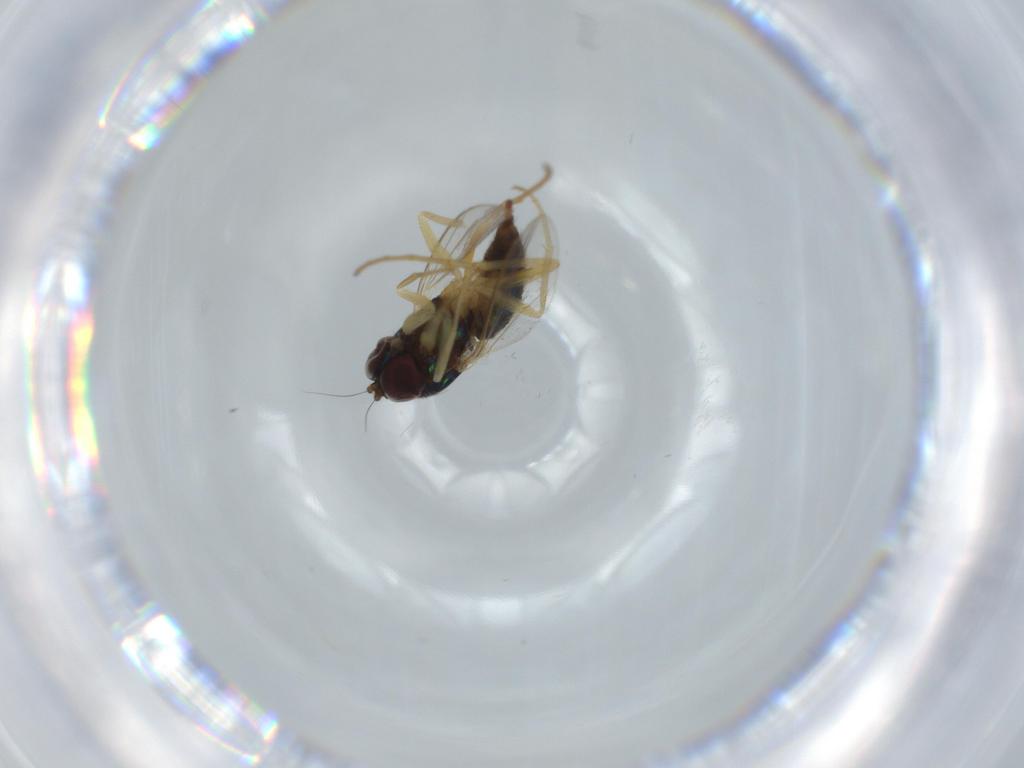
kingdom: Animalia
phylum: Arthropoda
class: Insecta
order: Diptera
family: Dolichopodidae
